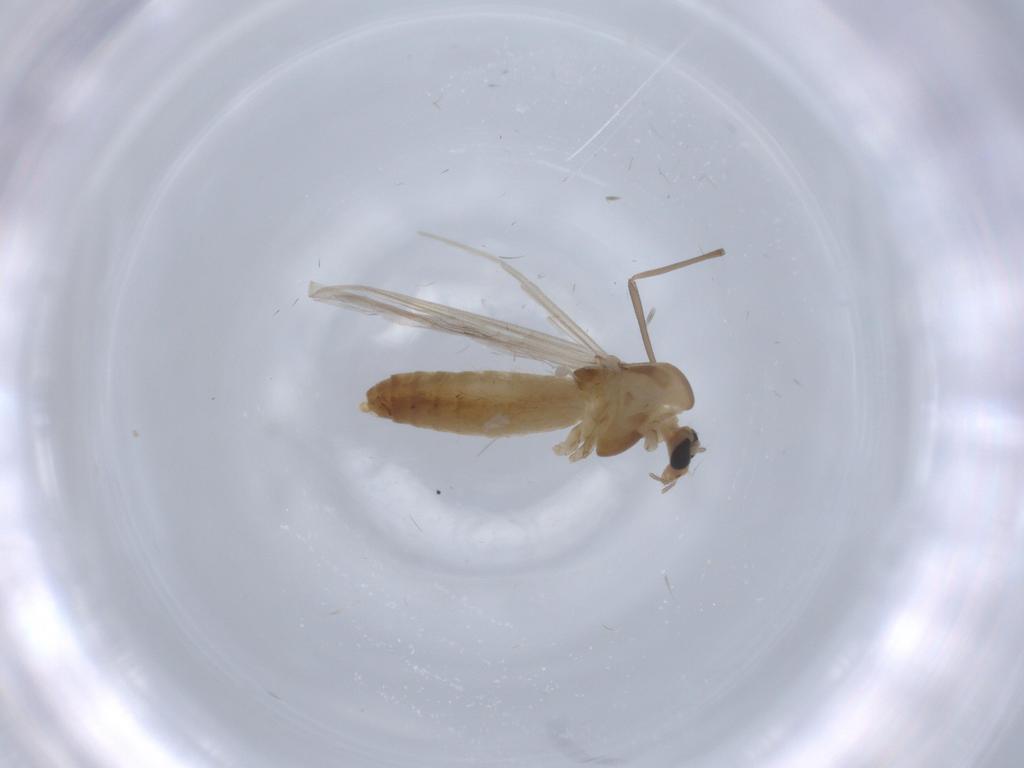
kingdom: Animalia
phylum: Arthropoda
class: Insecta
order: Diptera
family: Chironomidae
